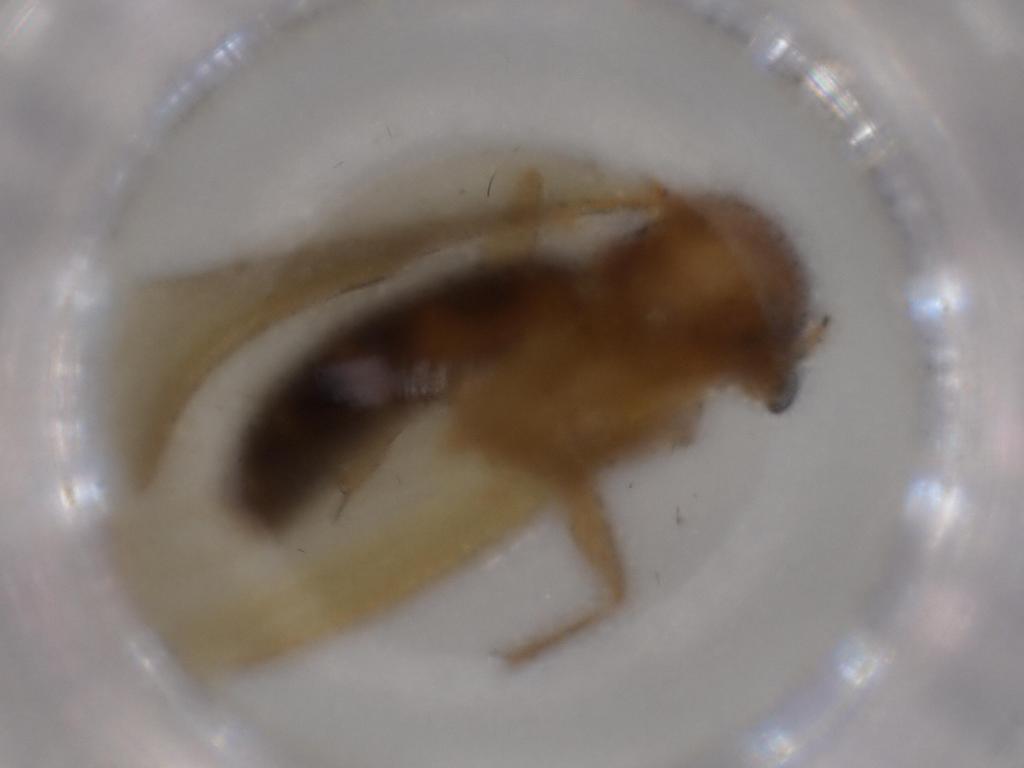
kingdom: Animalia
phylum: Arthropoda
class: Insecta
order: Diptera
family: Mycetophilidae
